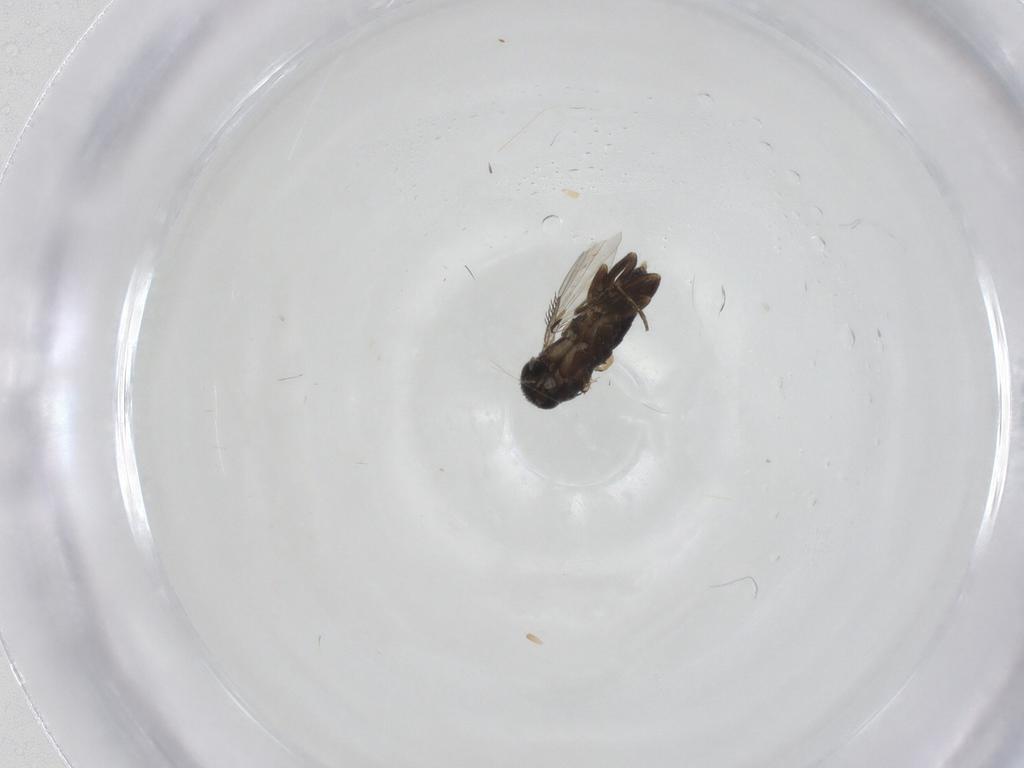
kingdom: Animalia
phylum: Arthropoda
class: Insecta
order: Diptera
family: Phoridae
